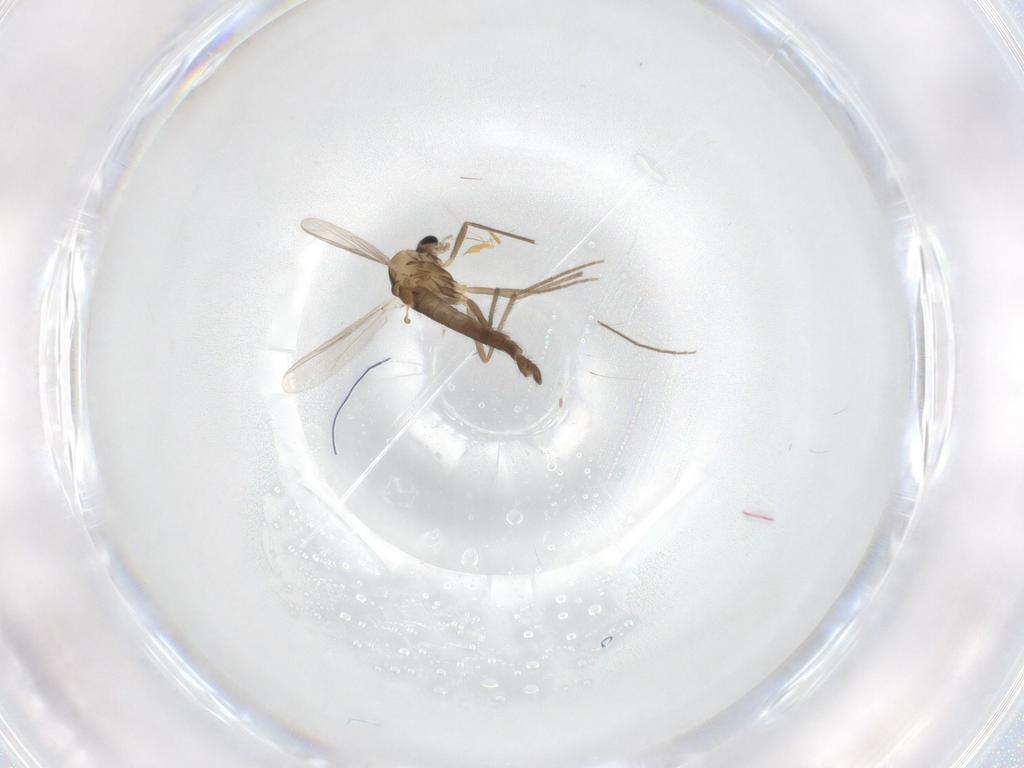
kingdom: Animalia
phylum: Arthropoda
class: Insecta
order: Diptera
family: Chironomidae
